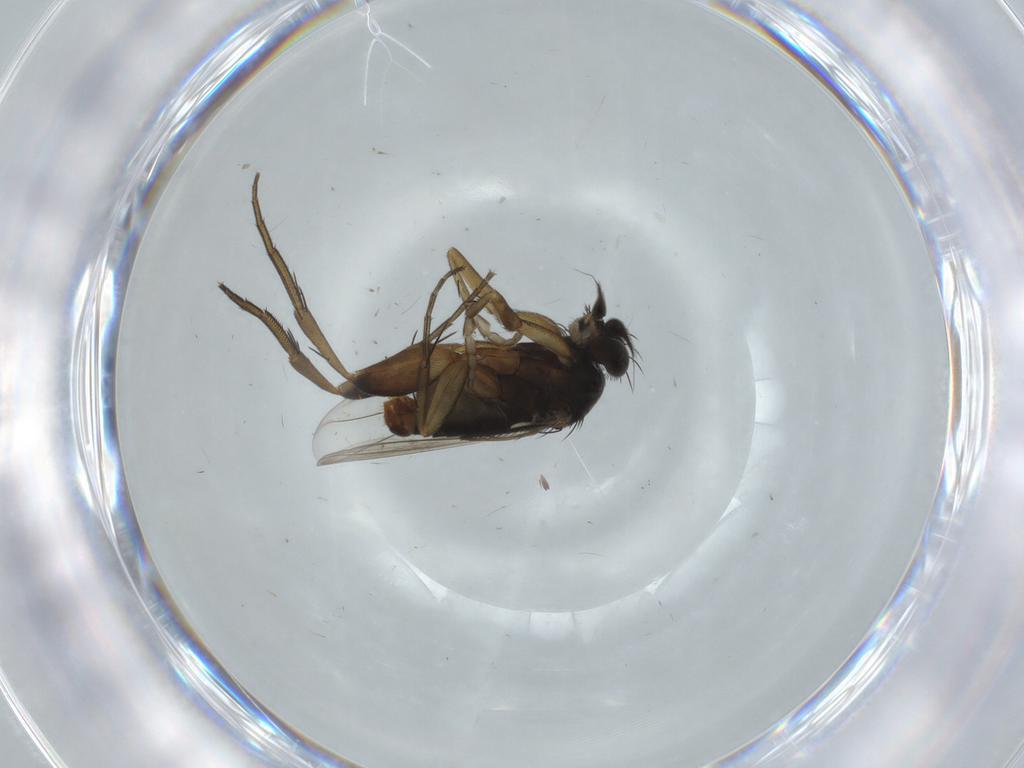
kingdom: Animalia
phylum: Arthropoda
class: Insecta
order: Diptera
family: Phoridae
